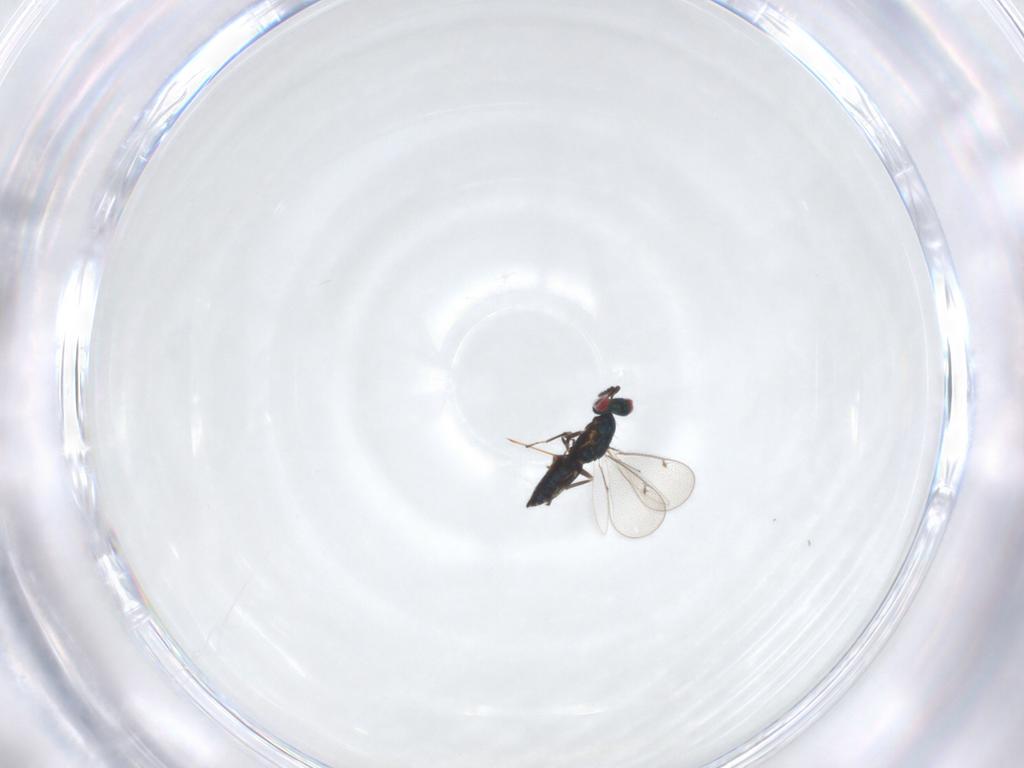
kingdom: Animalia
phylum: Arthropoda
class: Insecta
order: Hymenoptera
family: Eulophidae
